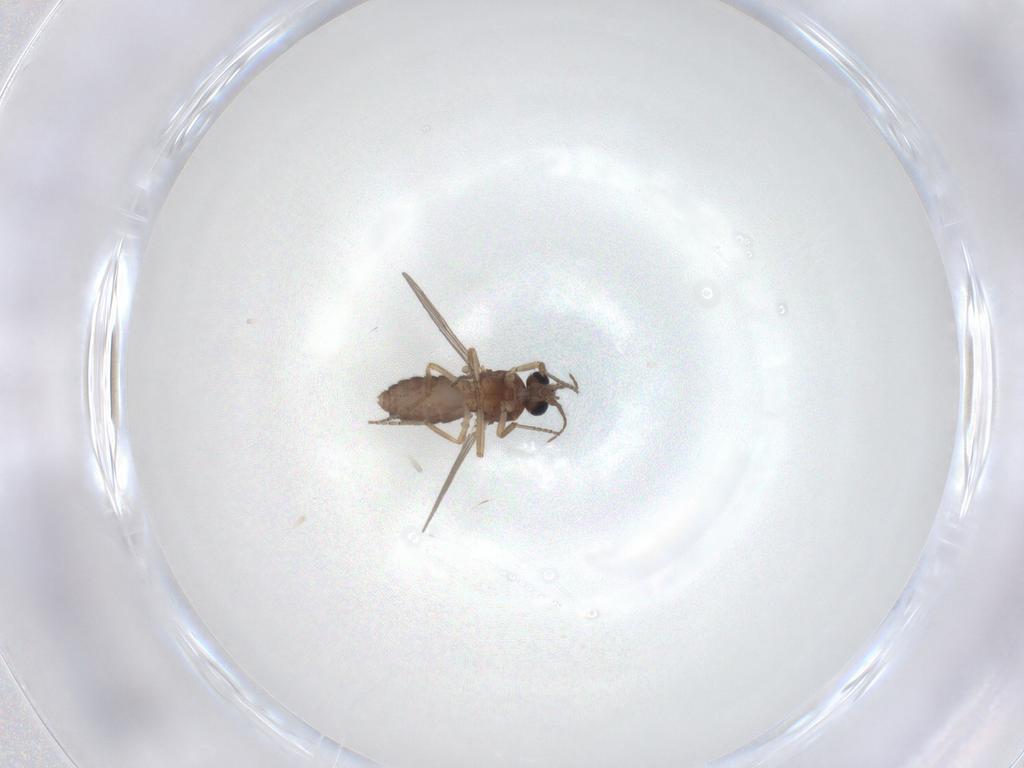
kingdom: Animalia
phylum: Arthropoda
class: Insecta
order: Diptera
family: Ceratopogonidae
